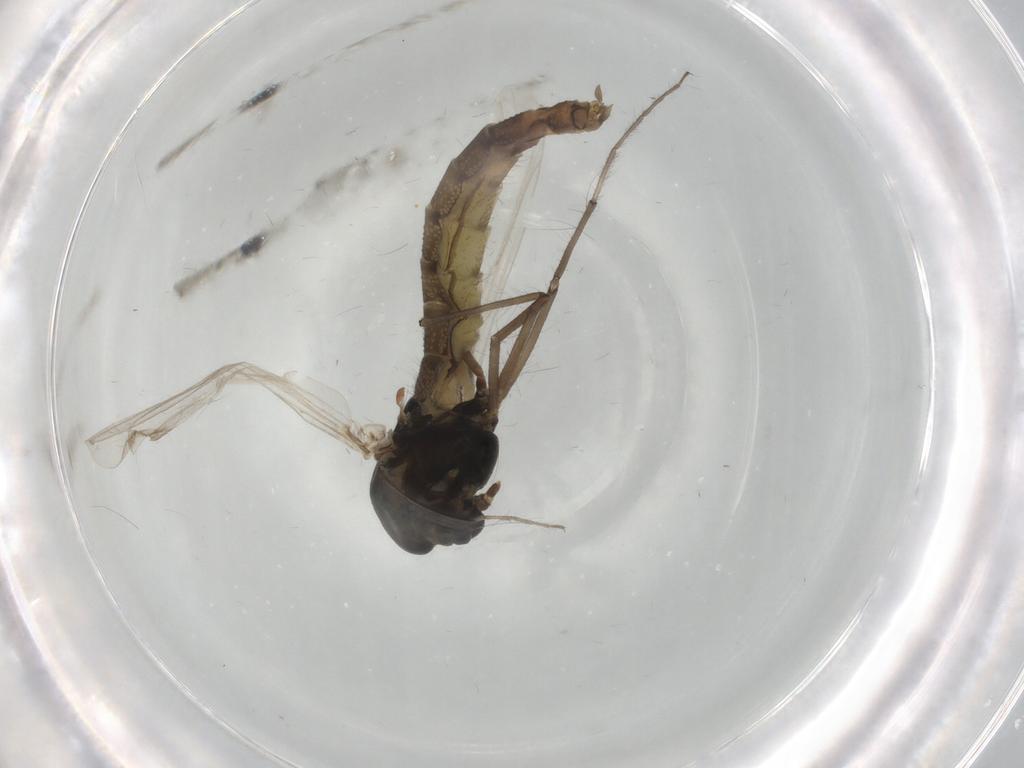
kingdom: Animalia
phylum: Arthropoda
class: Insecta
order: Diptera
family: Chironomidae
